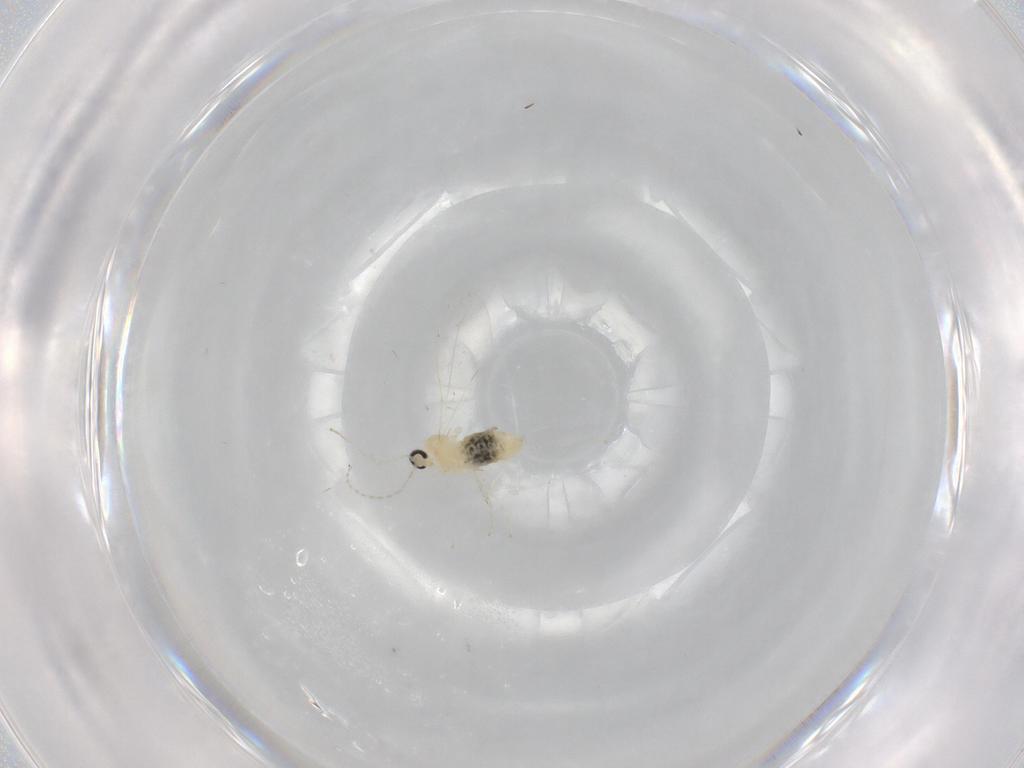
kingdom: Animalia
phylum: Arthropoda
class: Insecta
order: Diptera
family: Keroplatidae
